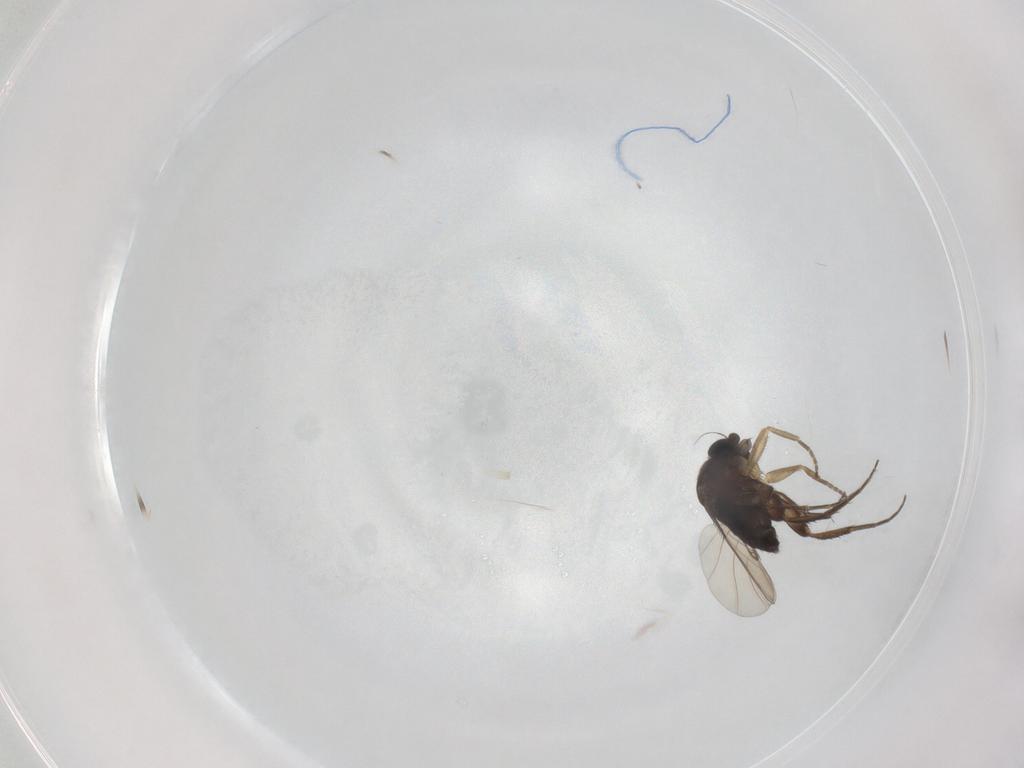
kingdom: Animalia
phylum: Arthropoda
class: Insecta
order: Diptera
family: Phoridae
